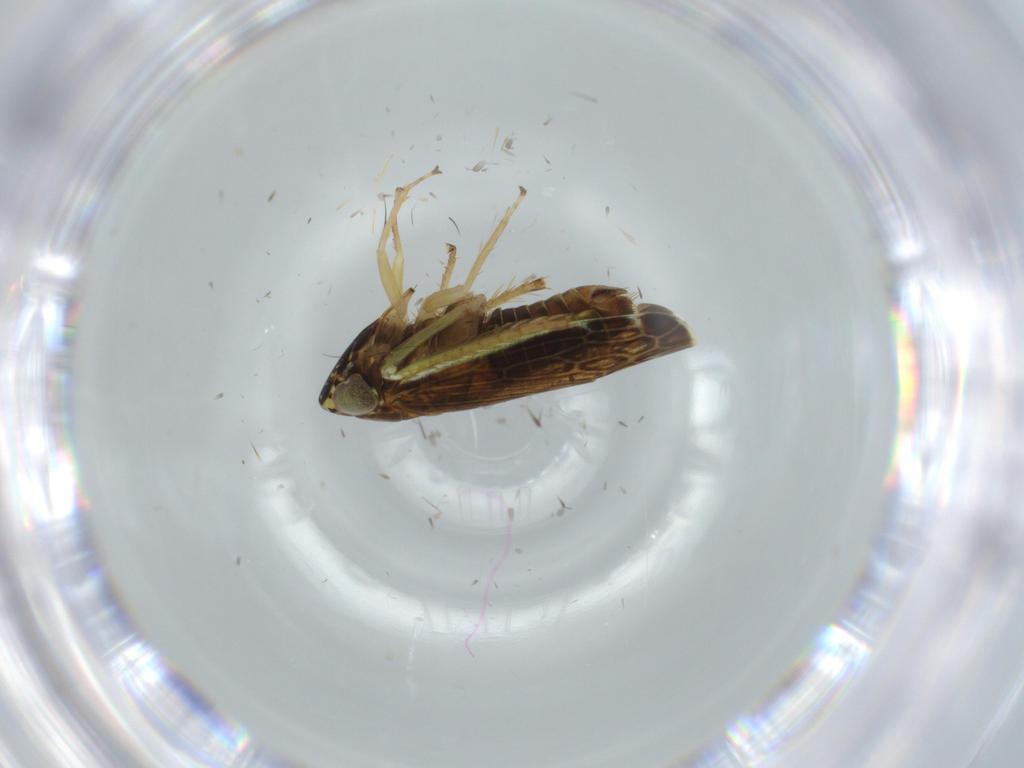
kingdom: Animalia
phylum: Arthropoda
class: Insecta
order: Hemiptera
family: Cicadellidae
